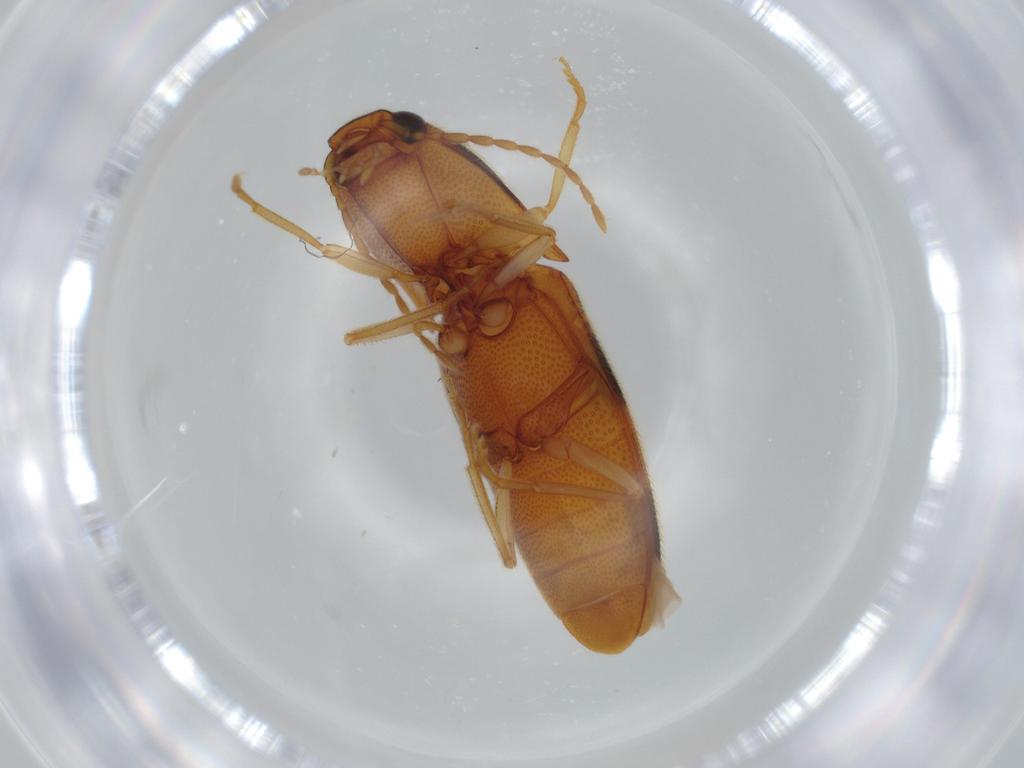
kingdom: Animalia
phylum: Arthropoda
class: Insecta
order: Coleoptera
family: Elateridae
